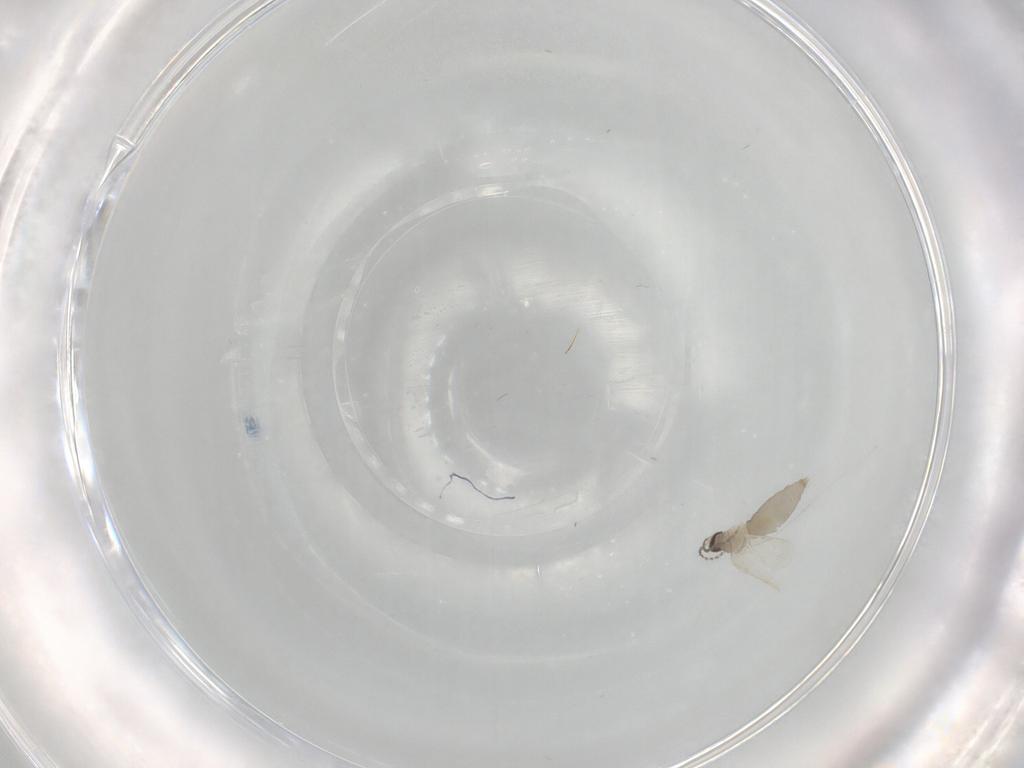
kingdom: Animalia
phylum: Arthropoda
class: Insecta
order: Diptera
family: Cecidomyiidae
